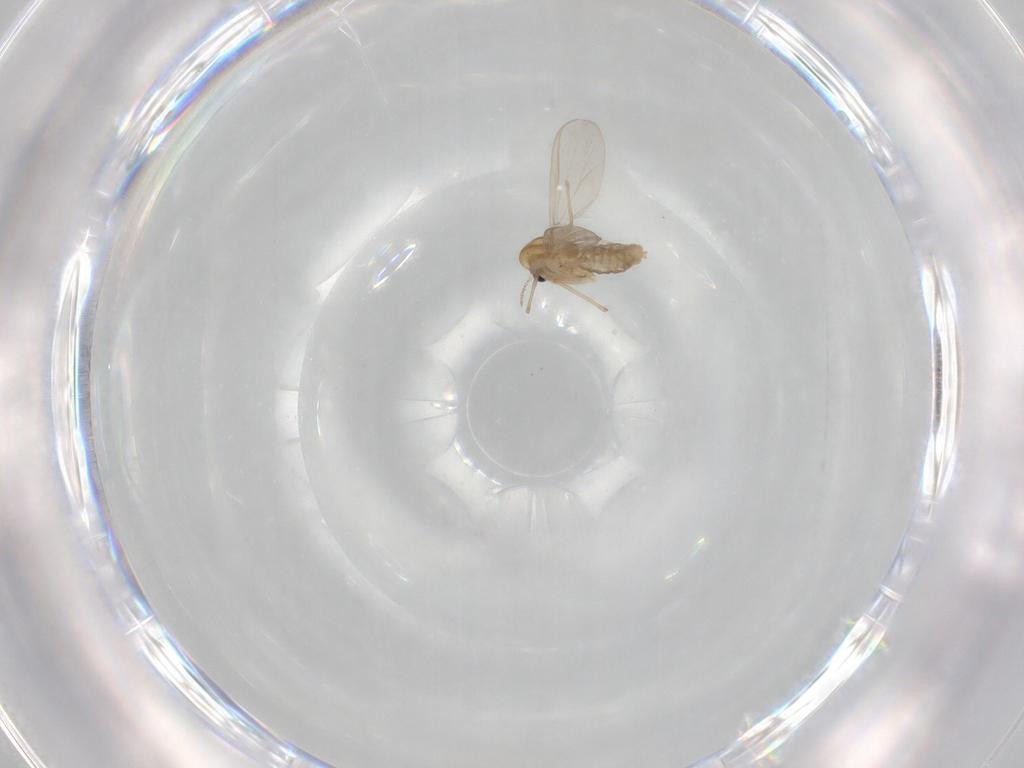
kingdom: Animalia
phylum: Arthropoda
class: Insecta
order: Diptera
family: Chironomidae
